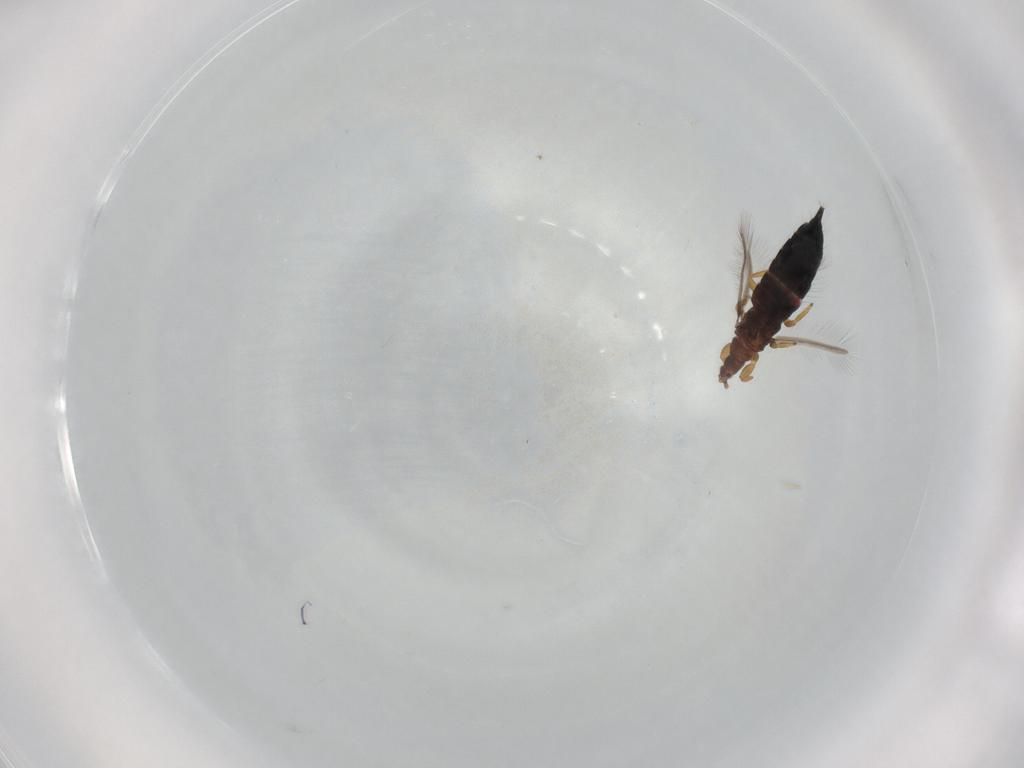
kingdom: Animalia
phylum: Arthropoda
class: Insecta
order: Thysanoptera
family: Phlaeothripidae
